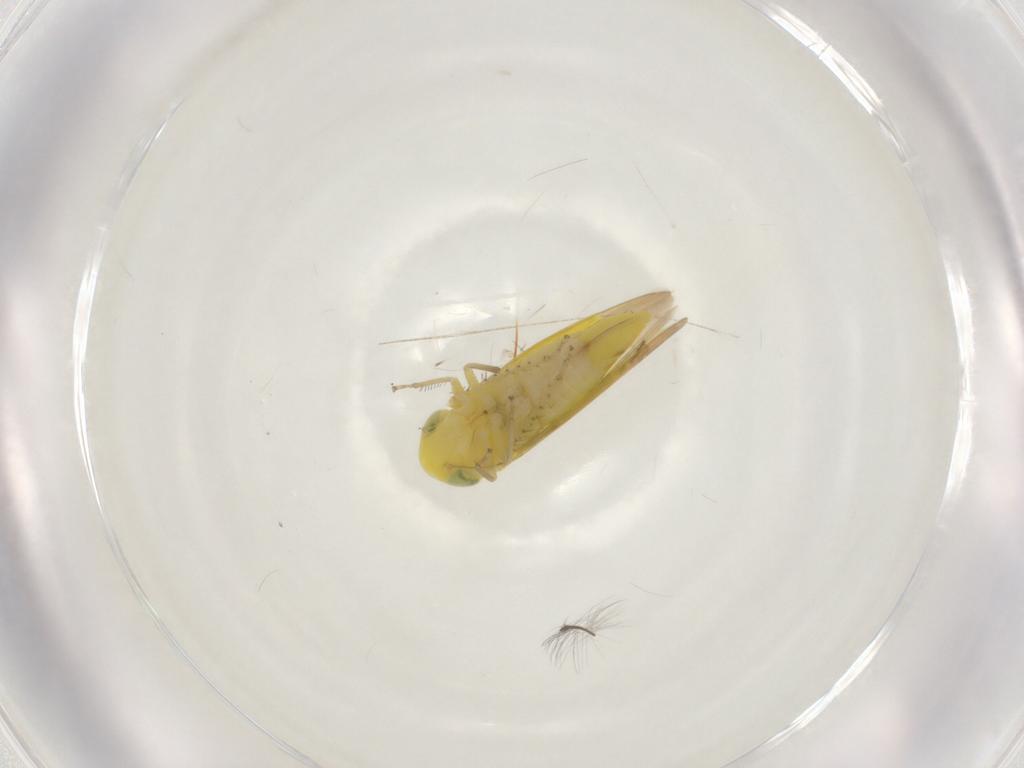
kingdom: Animalia
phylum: Arthropoda
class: Insecta
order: Hemiptera
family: Cicadellidae
